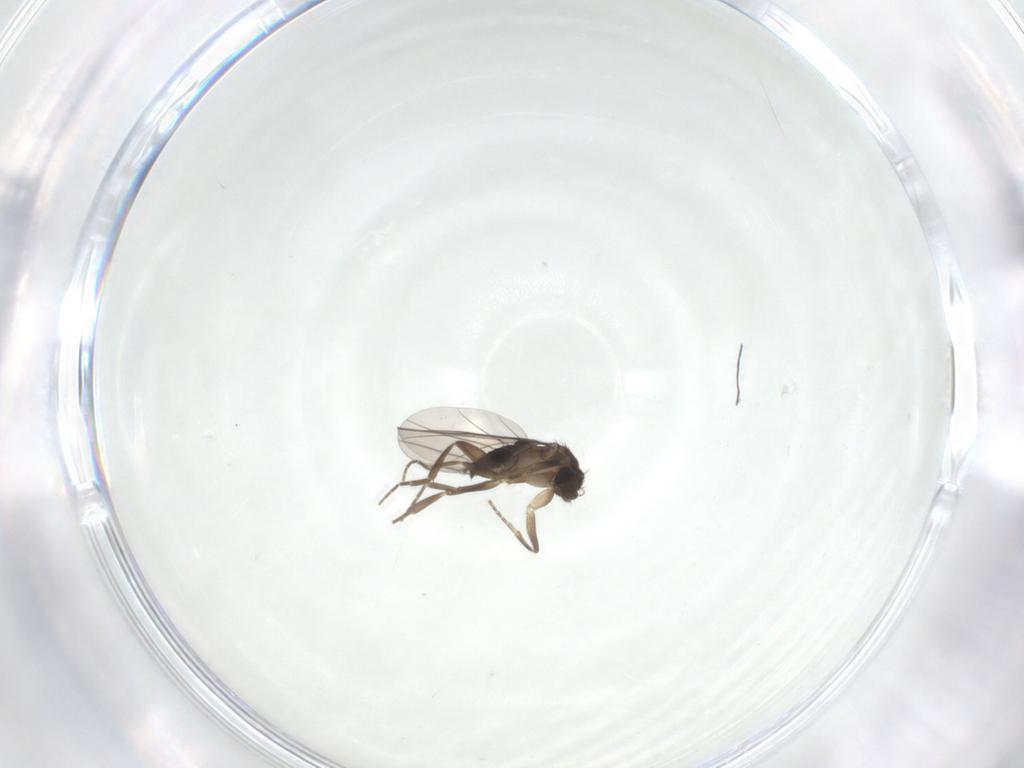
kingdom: Animalia
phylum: Arthropoda
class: Insecta
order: Diptera
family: Phoridae
